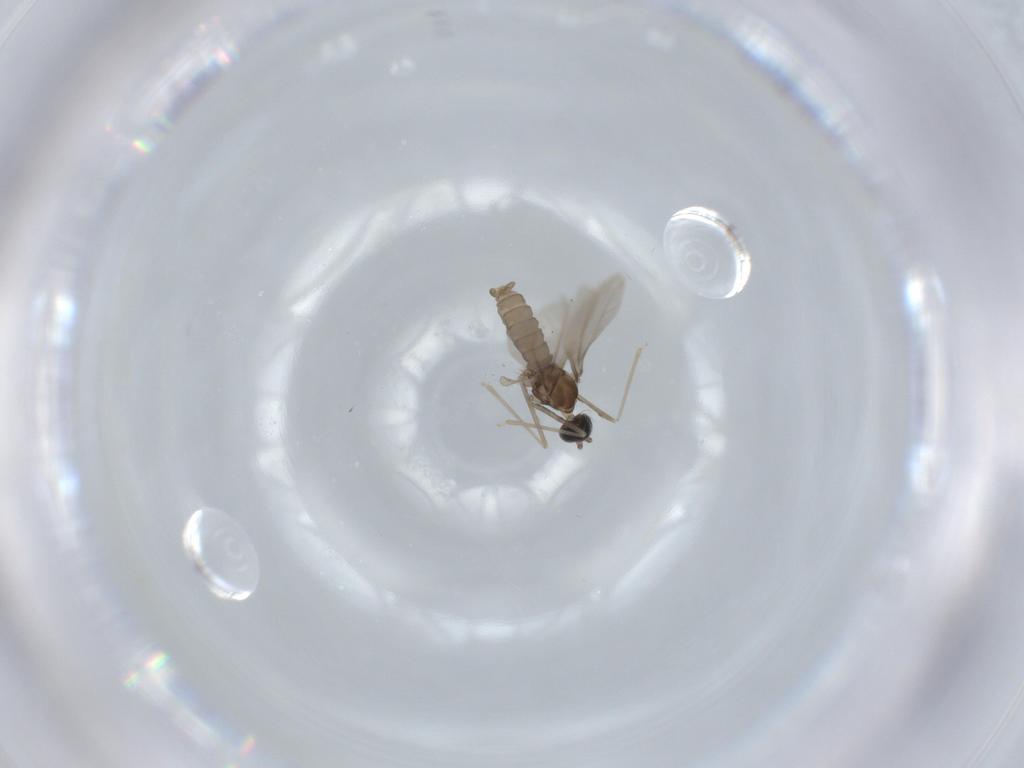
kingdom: Animalia
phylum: Arthropoda
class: Insecta
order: Diptera
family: Cecidomyiidae
